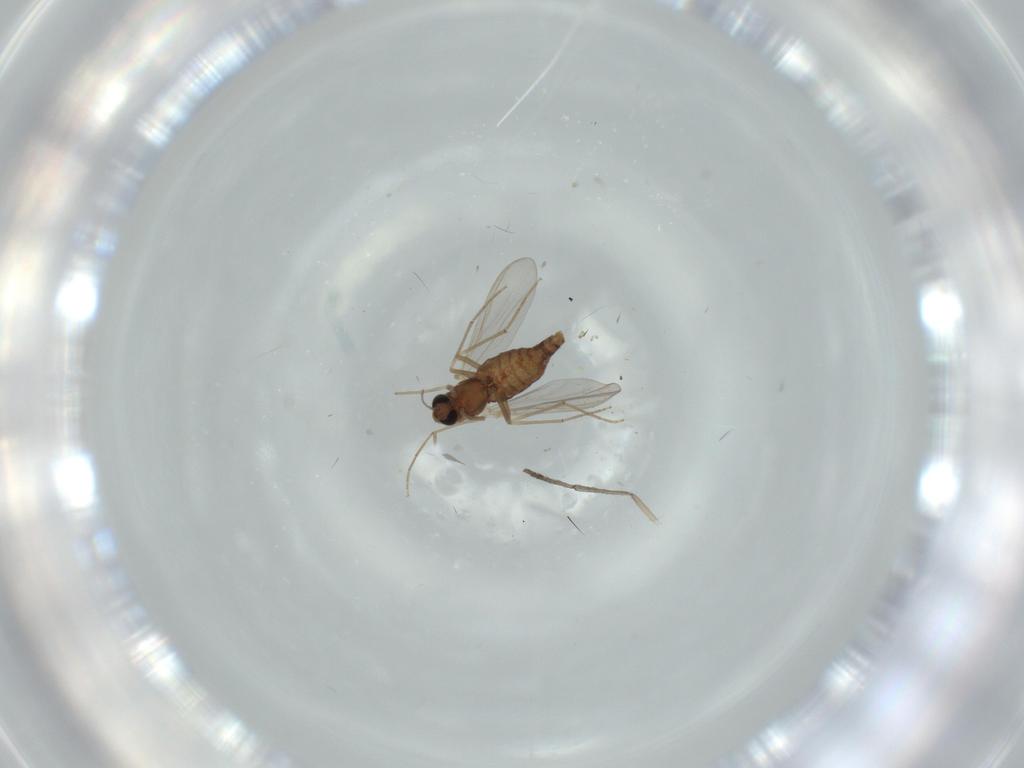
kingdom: Animalia
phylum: Arthropoda
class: Insecta
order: Diptera
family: Chironomidae
